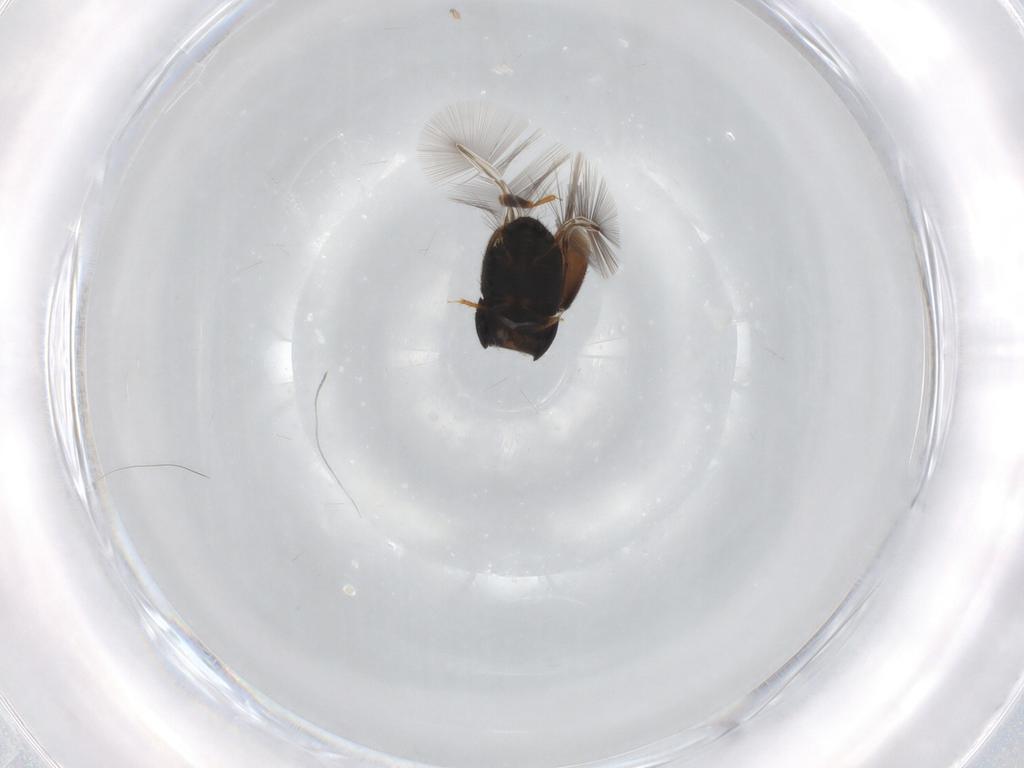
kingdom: Animalia
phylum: Arthropoda
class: Insecta
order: Coleoptera
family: Ptiliidae
